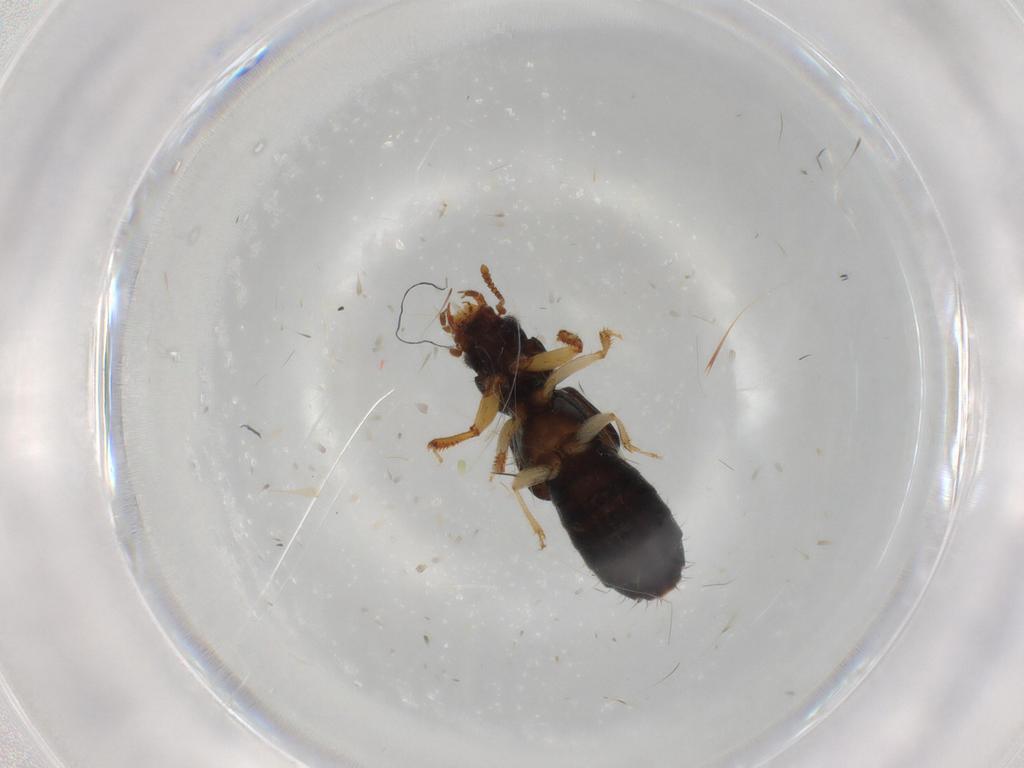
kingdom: Animalia
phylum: Arthropoda
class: Insecta
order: Coleoptera
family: Staphylinidae
